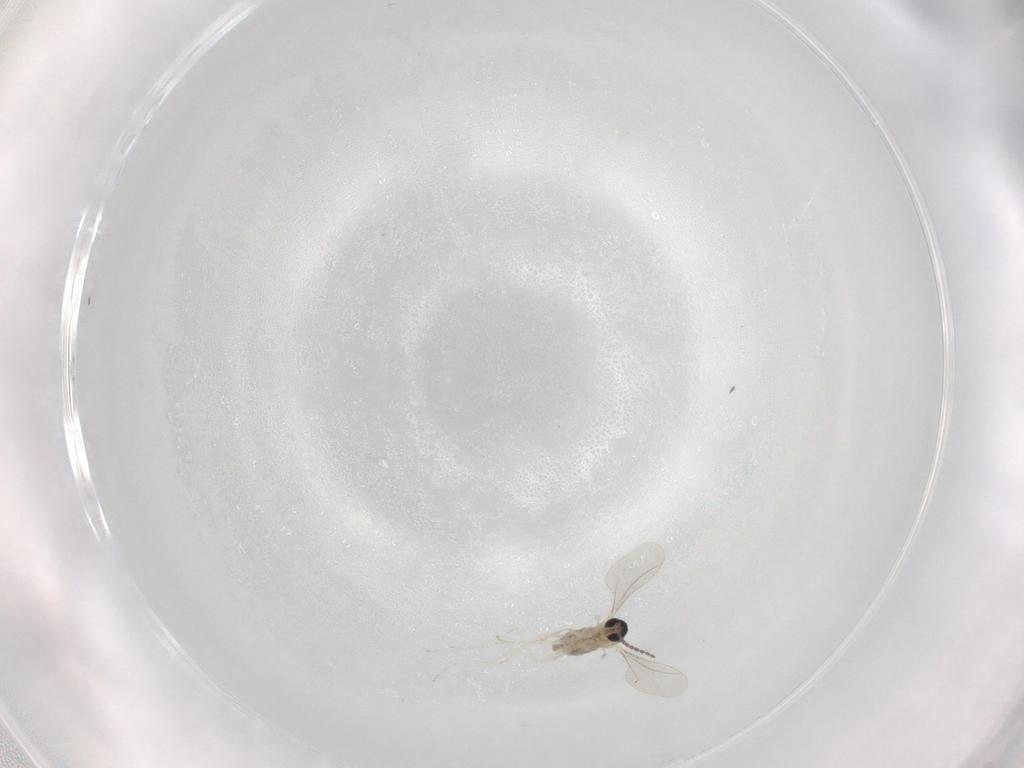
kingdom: Animalia
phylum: Arthropoda
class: Insecta
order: Diptera
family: Cecidomyiidae
